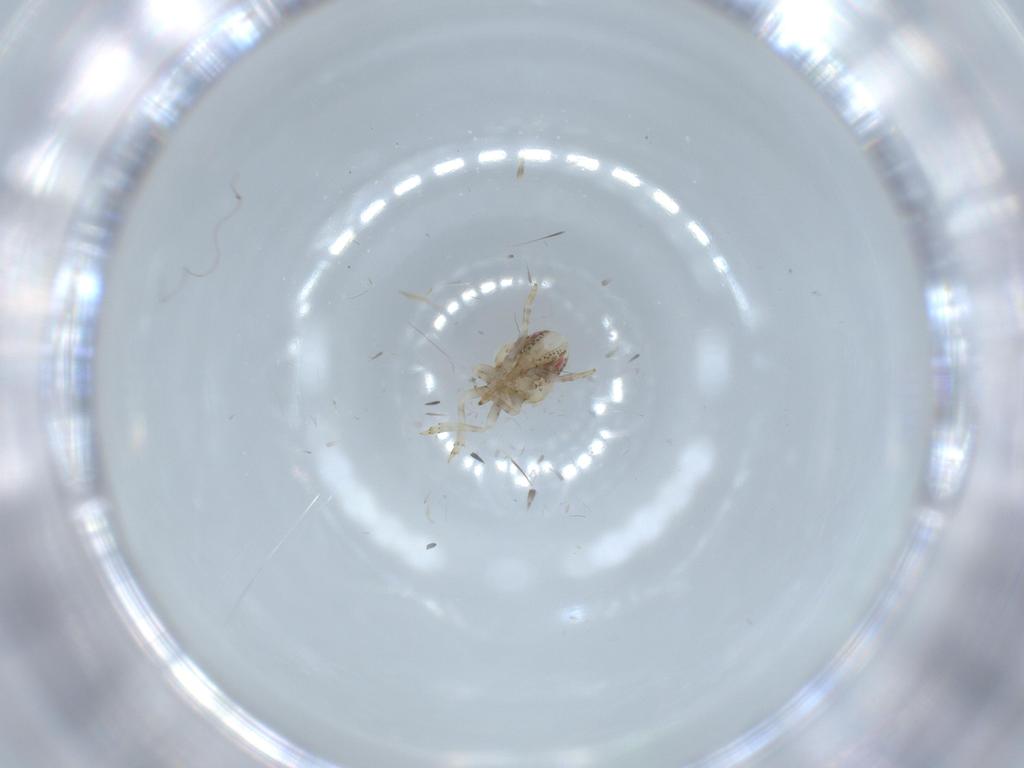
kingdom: Animalia
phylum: Arthropoda
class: Insecta
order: Hemiptera
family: Acanaloniidae
